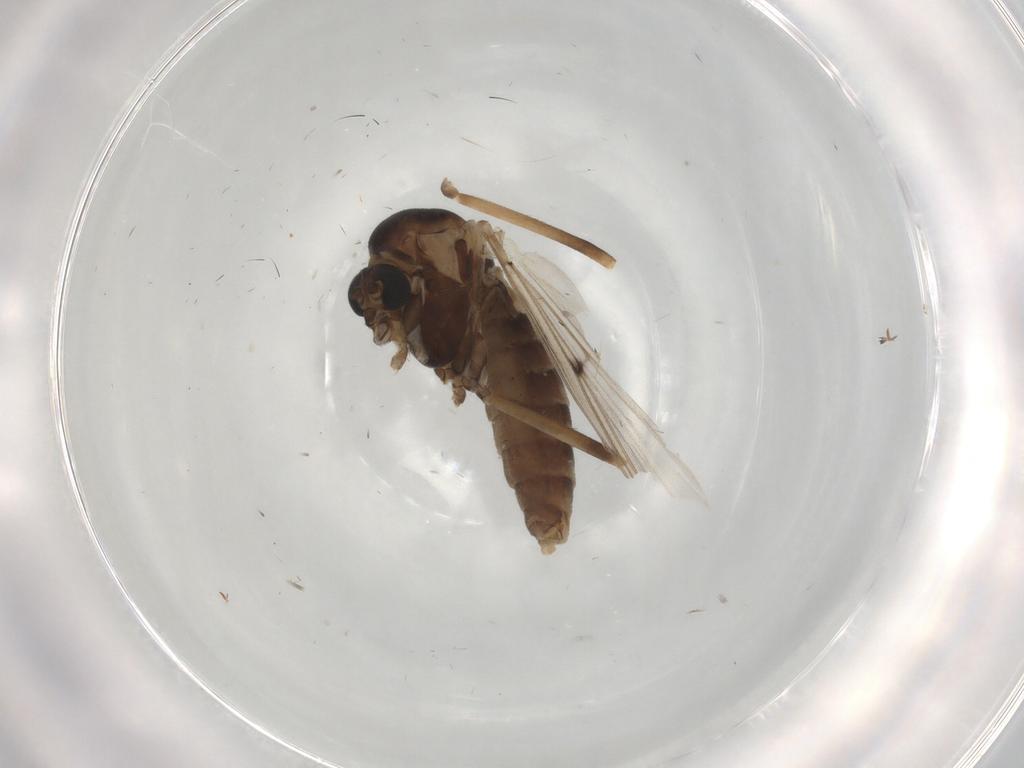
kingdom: Animalia
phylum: Arthropoda
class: Insecta
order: Diptera
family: Chironomidae
